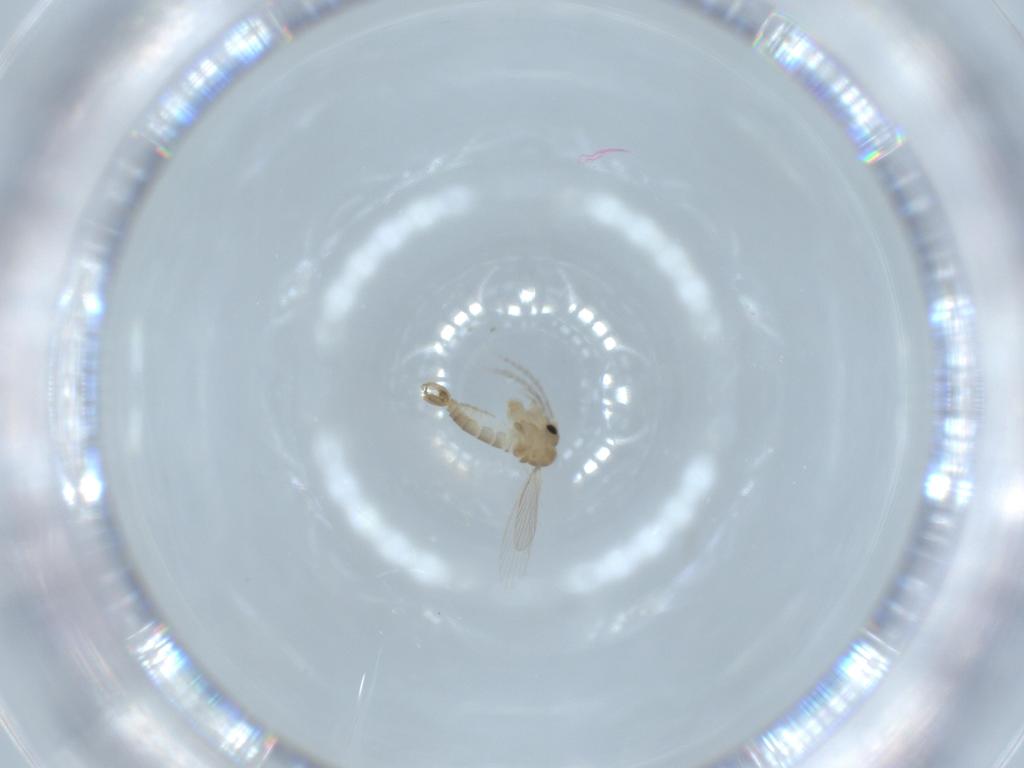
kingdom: Animalia
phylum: Arthropoda
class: Insecta
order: Diptera
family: Psychodidae
